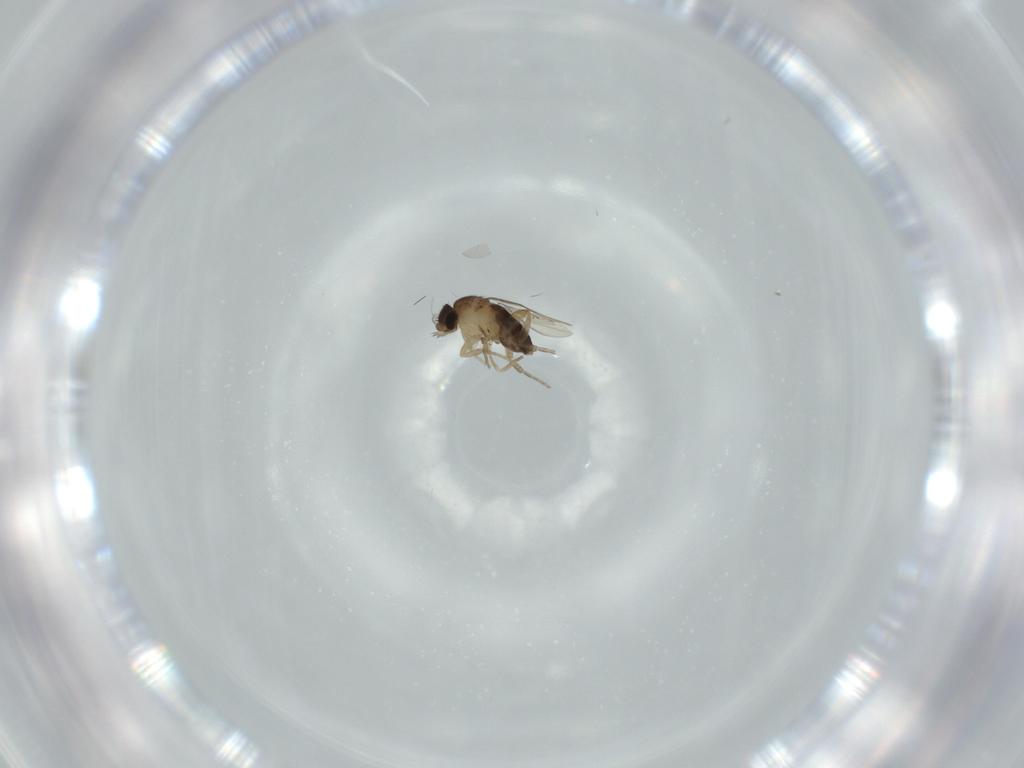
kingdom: Animalia
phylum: Arthropoda
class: Insecta
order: Diptera
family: Phoridae
